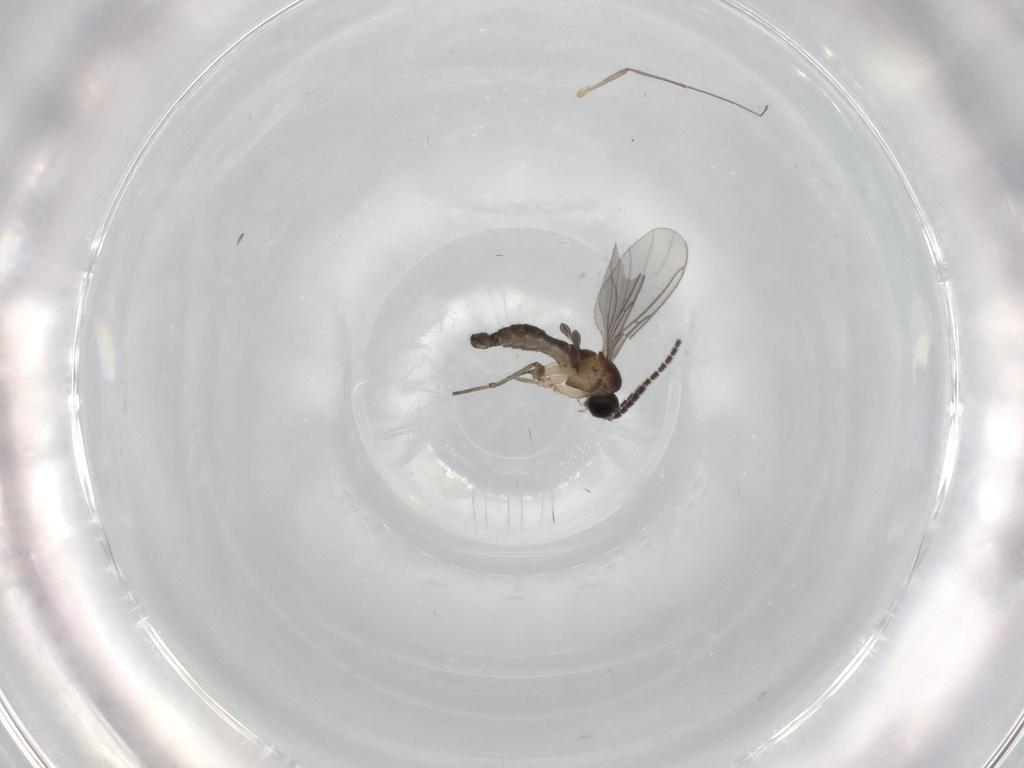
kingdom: Animalia
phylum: Arthropoda
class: Insecta
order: Diptera
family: Sciaridae
